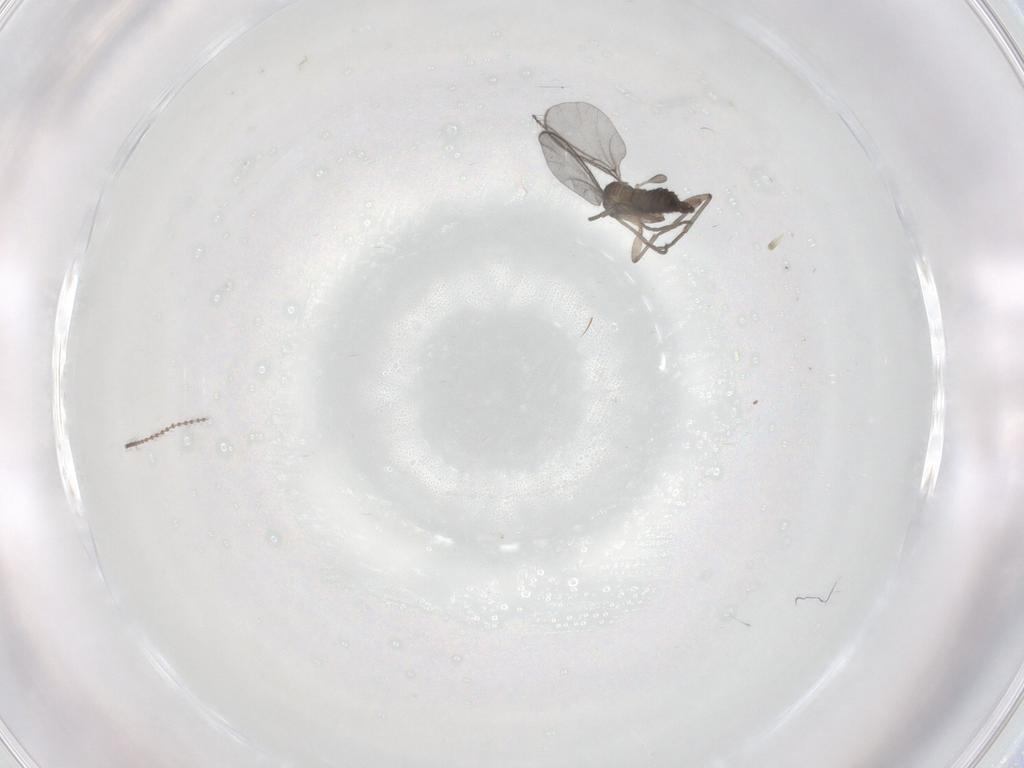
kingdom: Animalia
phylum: Arthropoda
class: Insecta
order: Diptera
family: Cecidomyiidae
